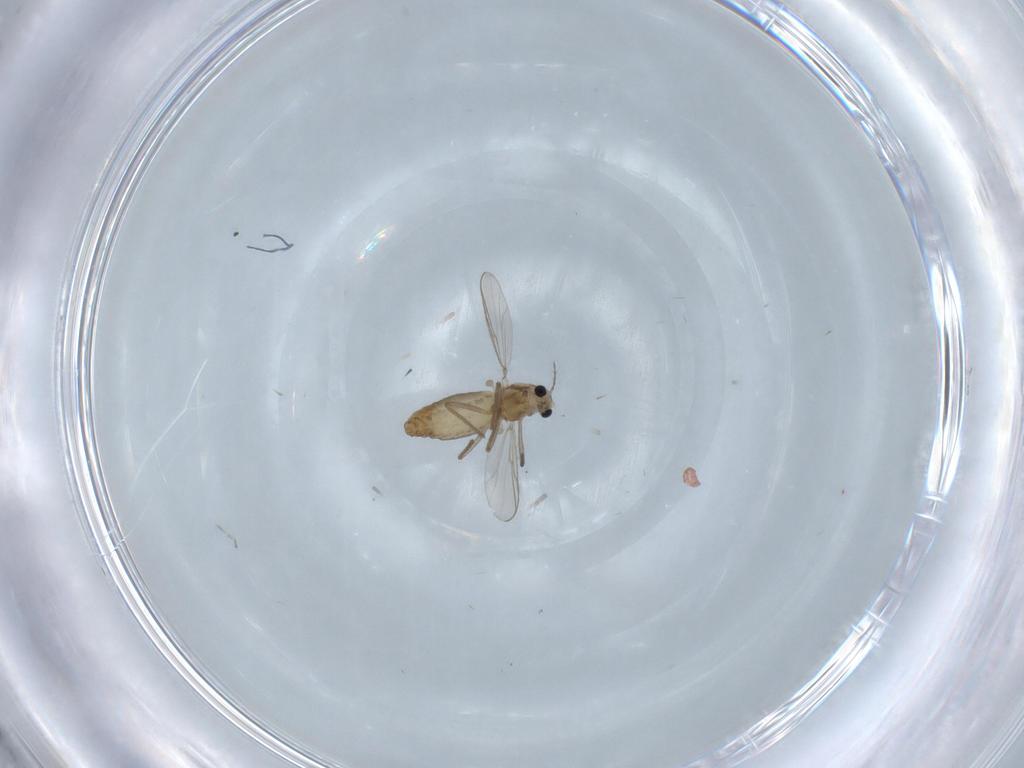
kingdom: Animalia
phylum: Arthropoda
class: Insecta
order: Diptera
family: Chironomidae
